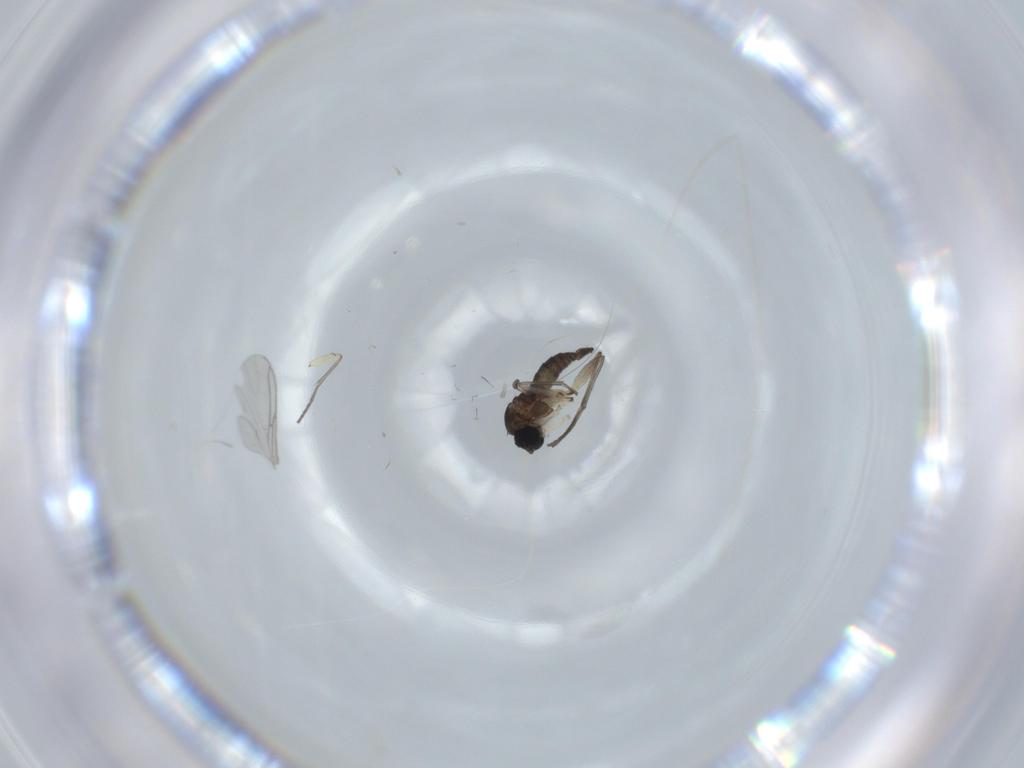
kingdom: Animalia
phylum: Arthropoda
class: Insecta
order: Diptera
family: Sciaridae
